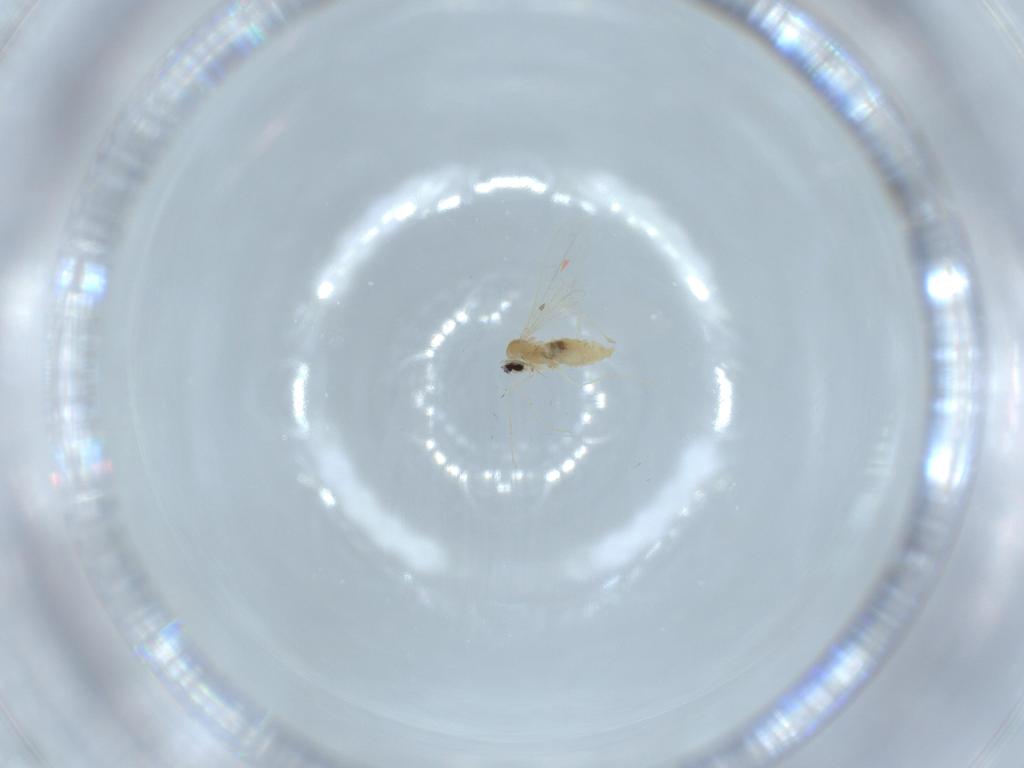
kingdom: Animalia
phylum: Arthropoda
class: Insecta
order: Diptera
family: Cecidomyiidae
